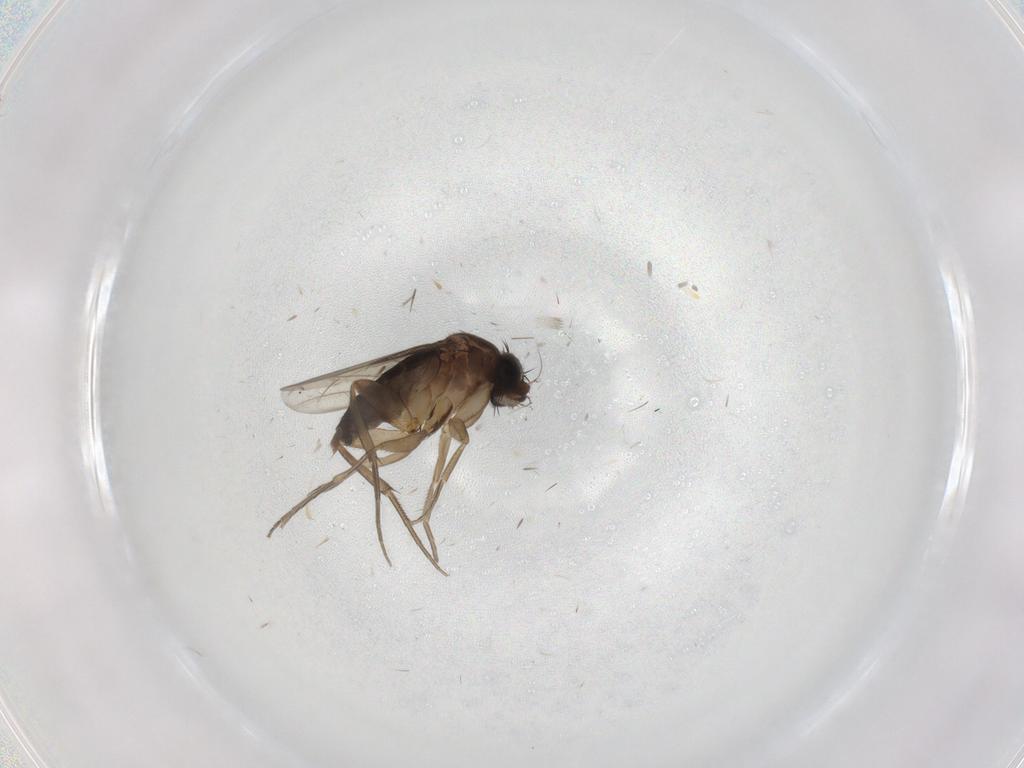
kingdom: Animalia
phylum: Arthropoda
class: Insecta
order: Diptera
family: Phoridae
